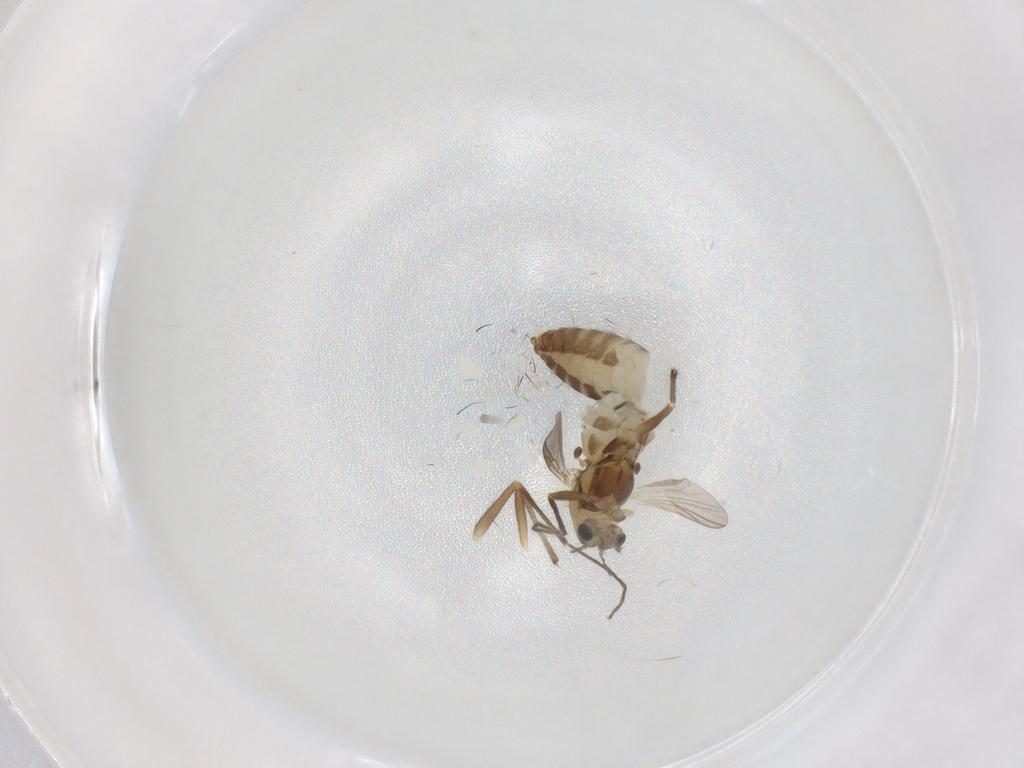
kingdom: Animalia
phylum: Arthropoda
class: Insecta
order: Diptera
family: Chironomidae
